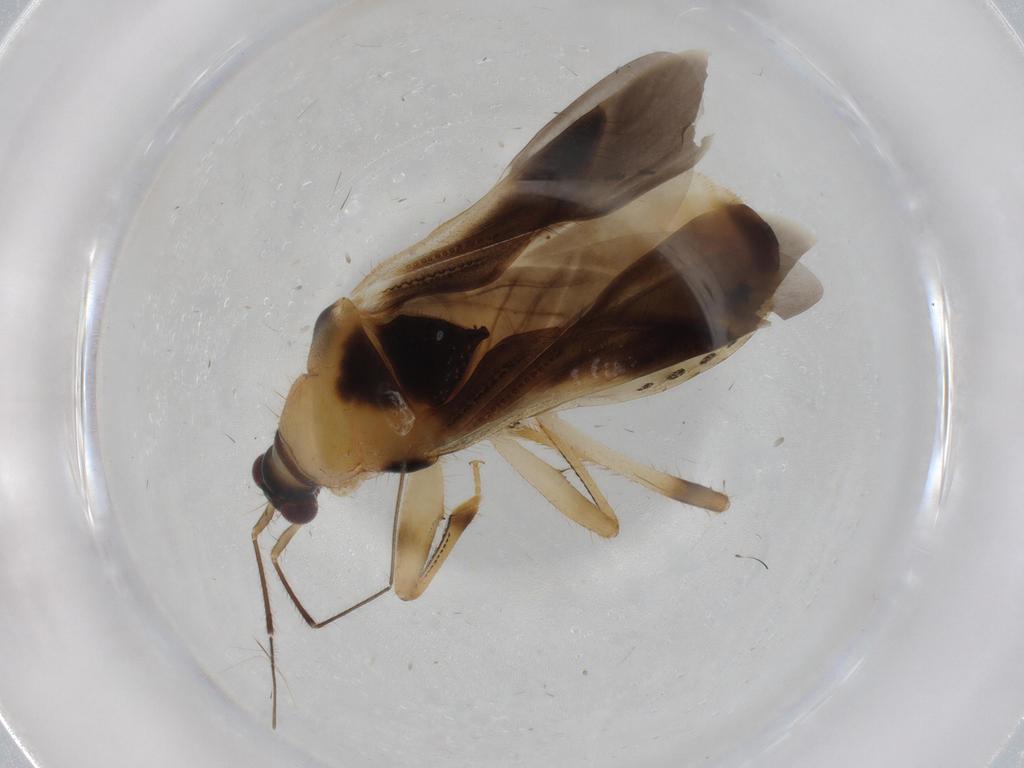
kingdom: Animalia
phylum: Arthropoda
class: Insecta
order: Hemiptera
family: Nabidae
